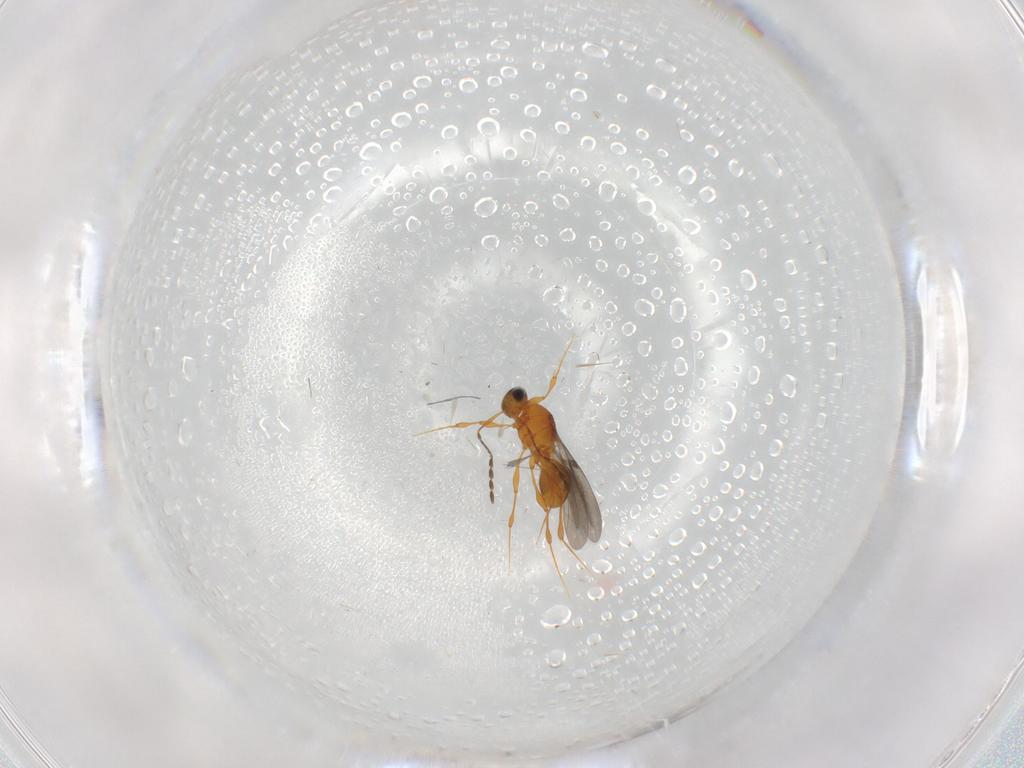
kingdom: Animalia
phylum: Arthropoda
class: Insecta
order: Hymenoptera
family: Platygastridae
